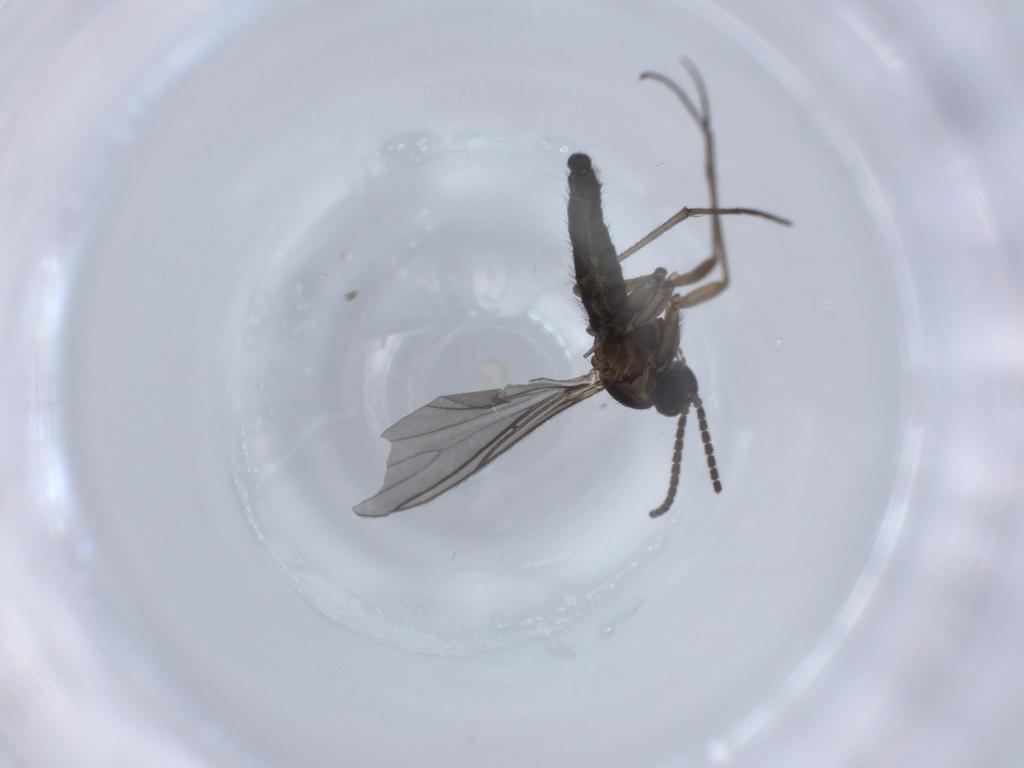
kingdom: Animalia
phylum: Arthropoda
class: Insecta
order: Diptera
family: Sciaridae
